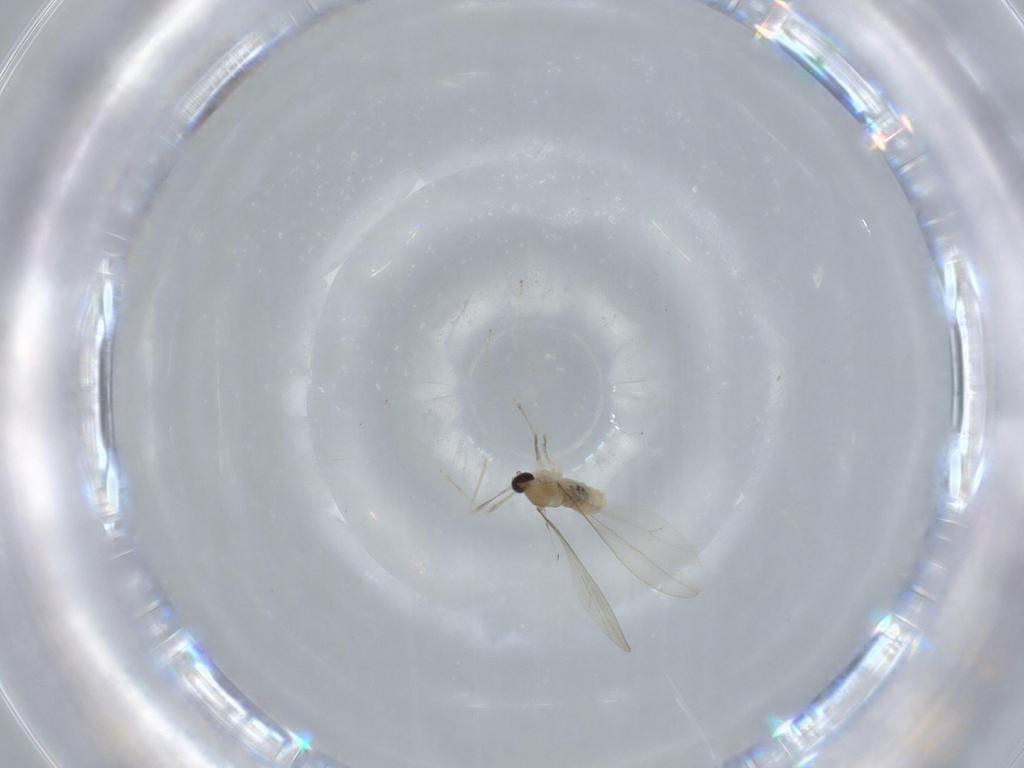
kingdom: Animalia
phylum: Arthropoda
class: Insecta
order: Diptera
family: Cecidomyiidae
